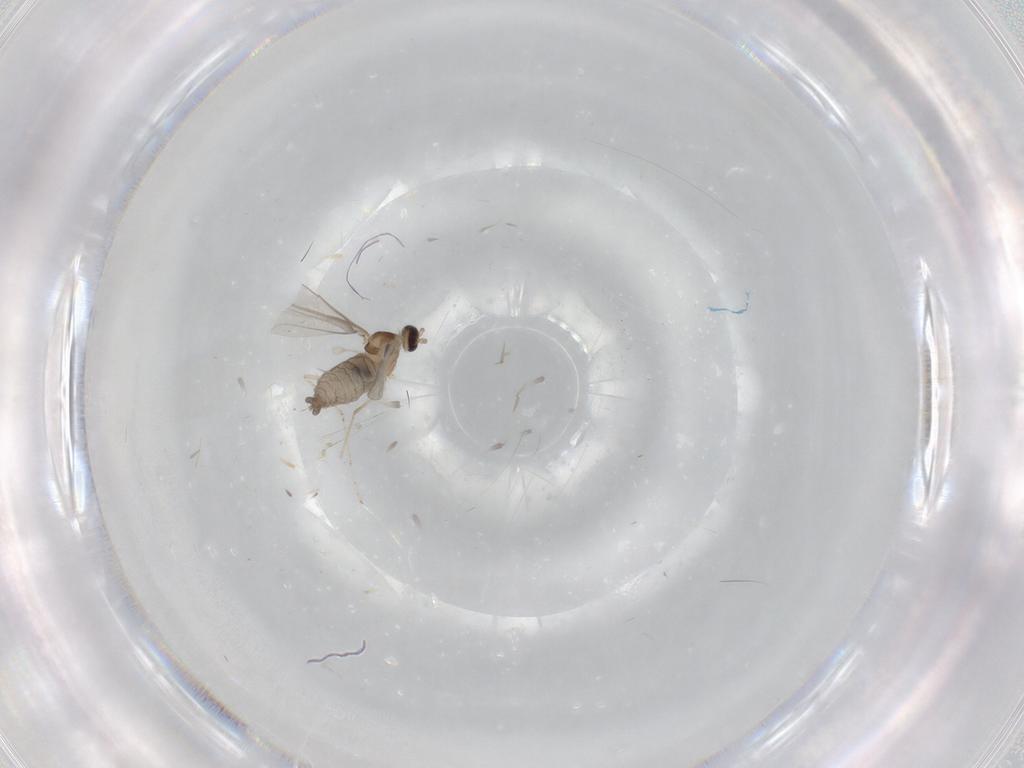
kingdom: Animalia
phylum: Arthropoda
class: Insecta
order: Diptera
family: Cecidomyiidae
